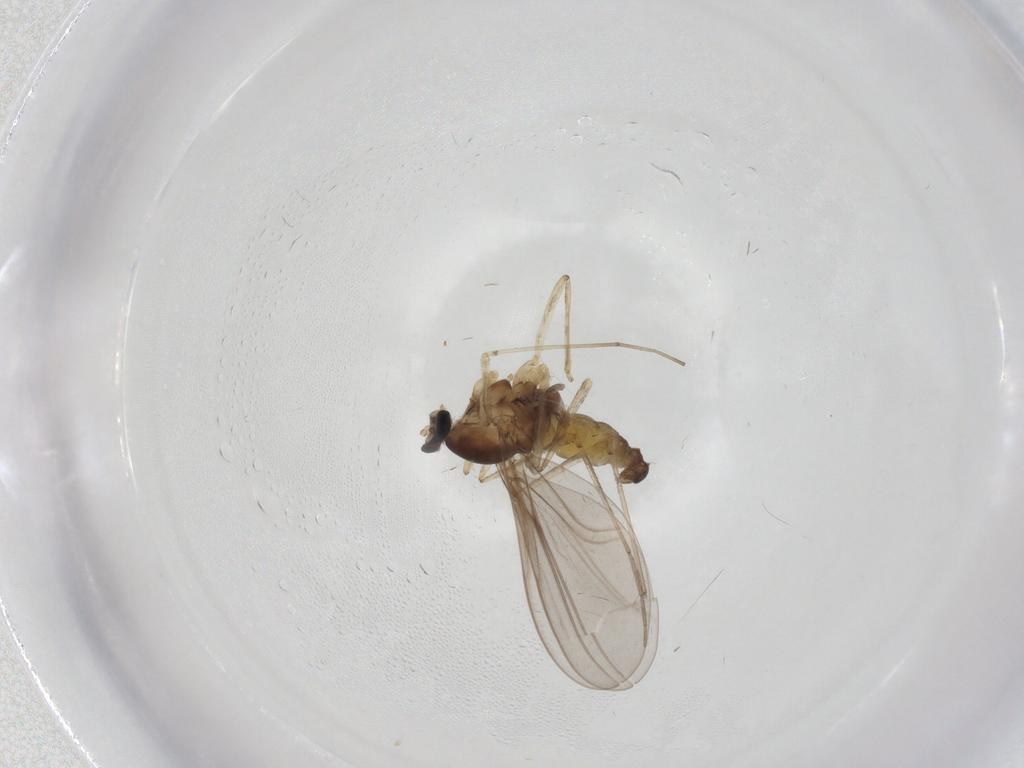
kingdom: Animalia
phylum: Arthropoda
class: Insecta
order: Diptera
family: Cecidomyiidae
